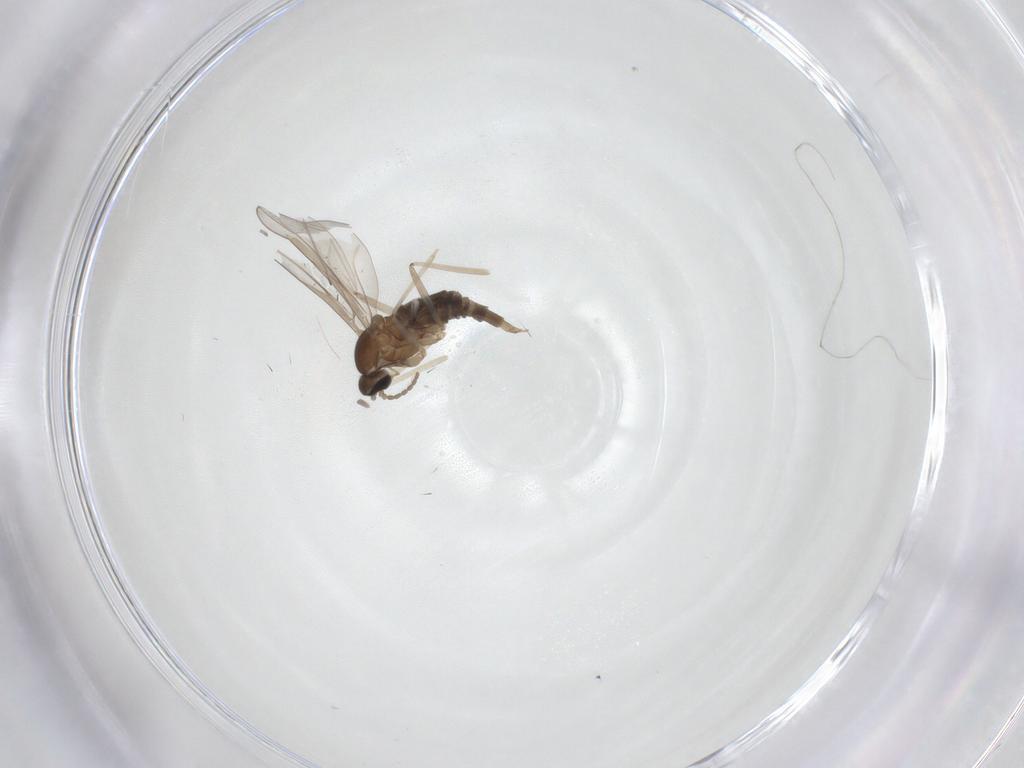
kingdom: Animalia
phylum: Arthropoda
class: Insecta
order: Diptera
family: Cecidomyiidae
